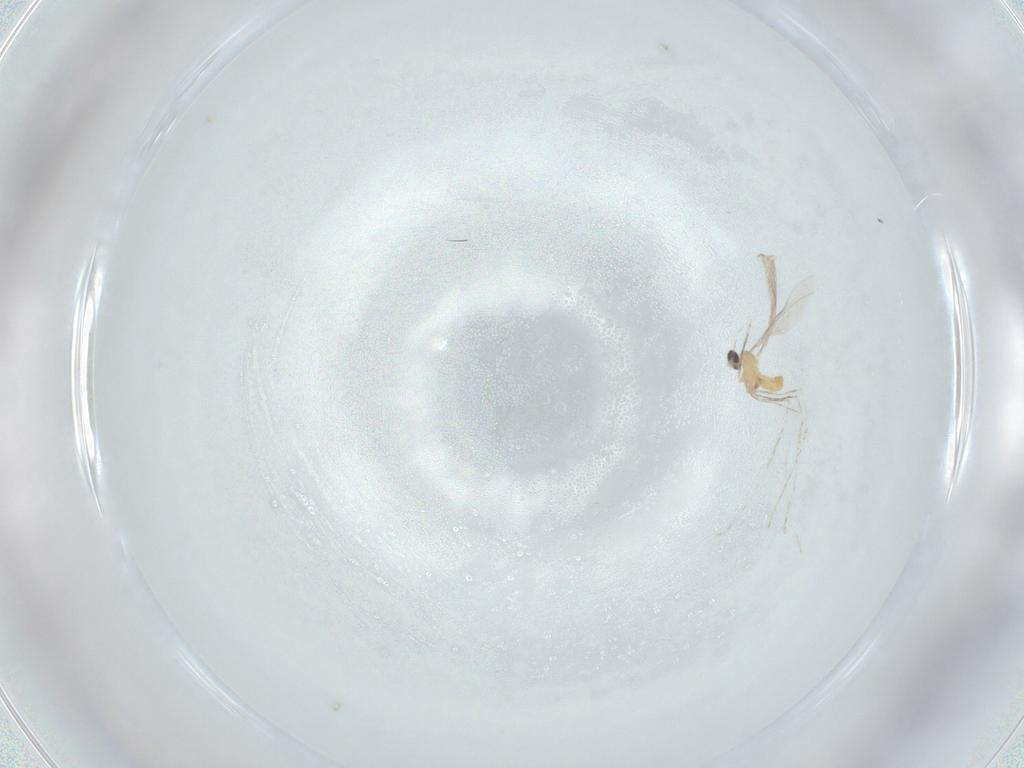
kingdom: Animalia
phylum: Arthropoda
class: Insecta
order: Diptera
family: Cecidomyiidae
